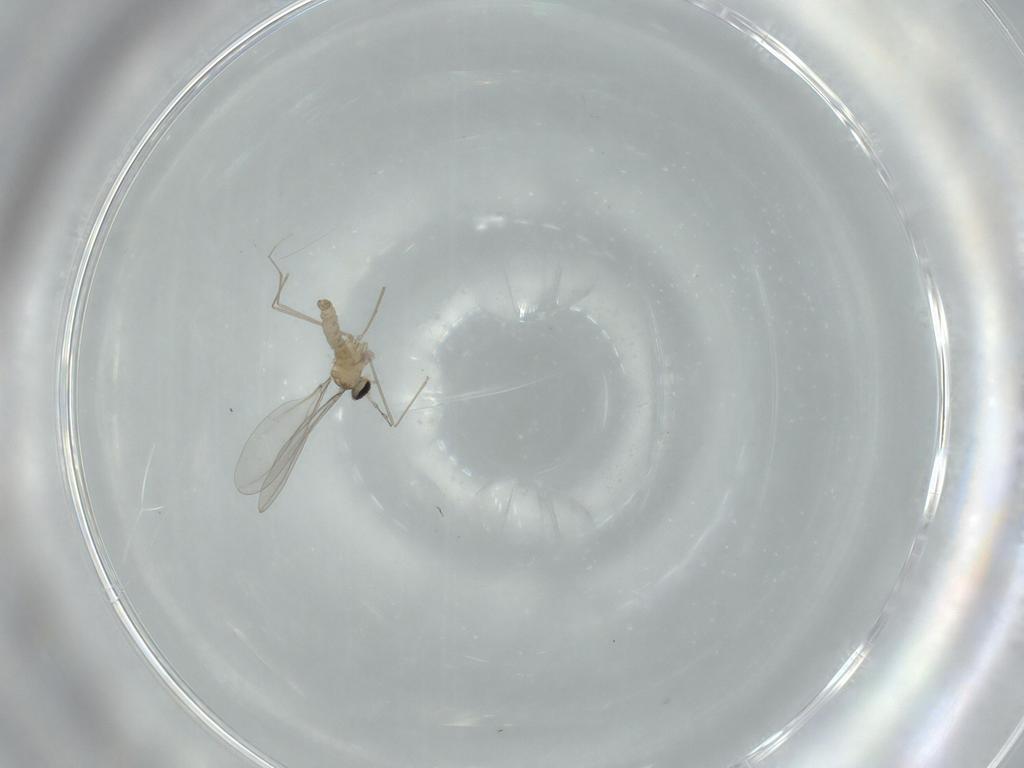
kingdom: Animalia
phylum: Arthropoda
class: Insecta
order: Diptera
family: Cecidomyiidae
